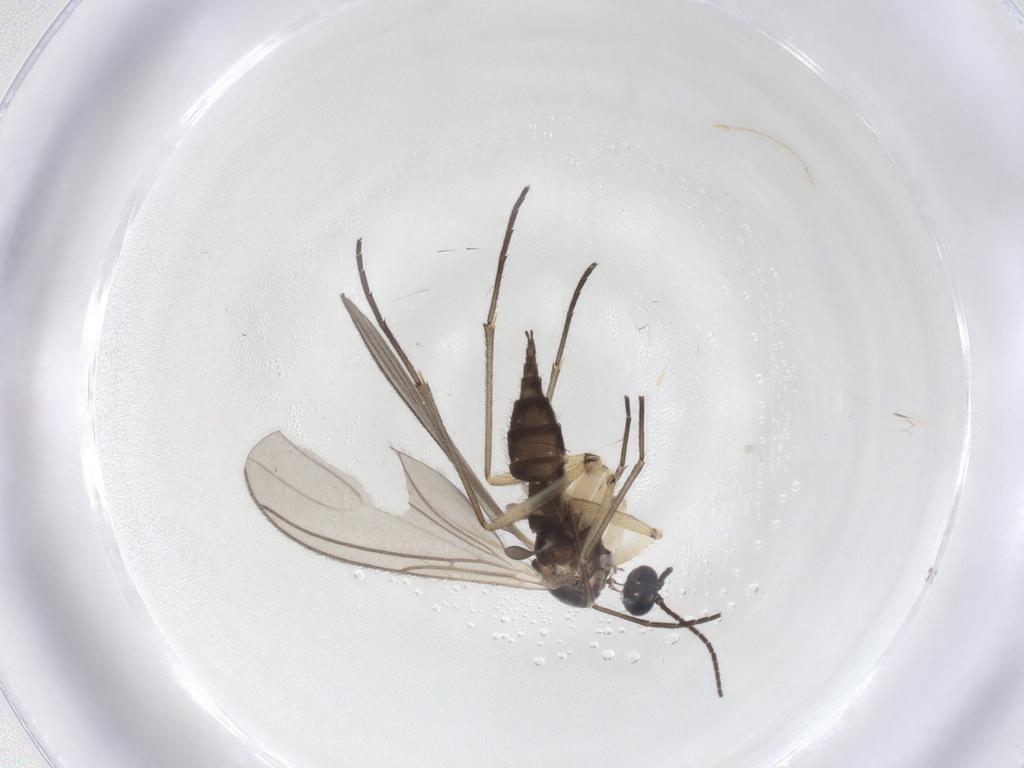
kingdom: Animalia
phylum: Arthropoda
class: Insecta
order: Diptera
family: Sciaridae
